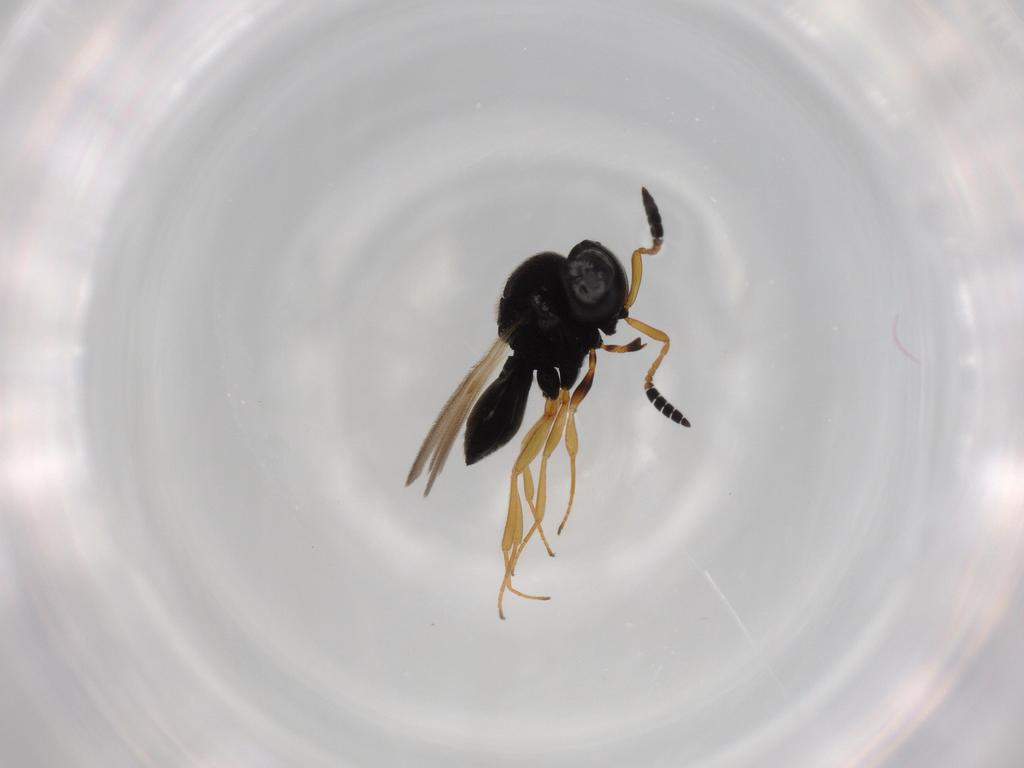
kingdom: Animalia
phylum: Arthropoda
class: Insecta
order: Hymenoptera
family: Scelionidae
